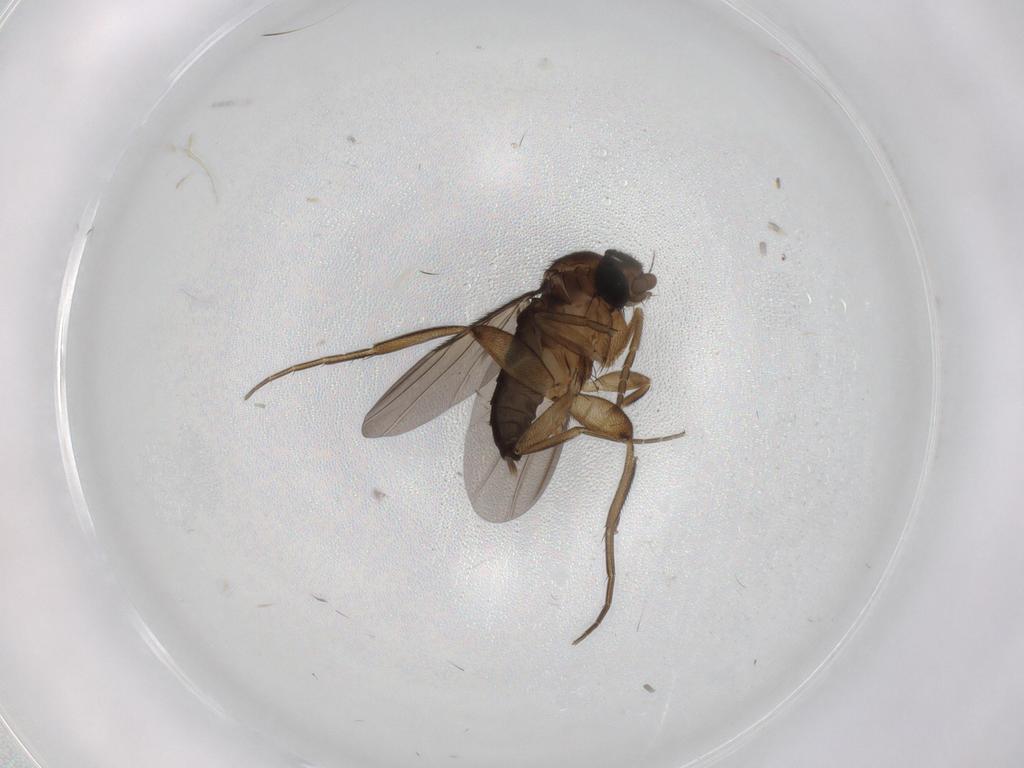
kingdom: Animalia
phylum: Arthropoda
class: Insecta
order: Diptera
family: Phoridae
